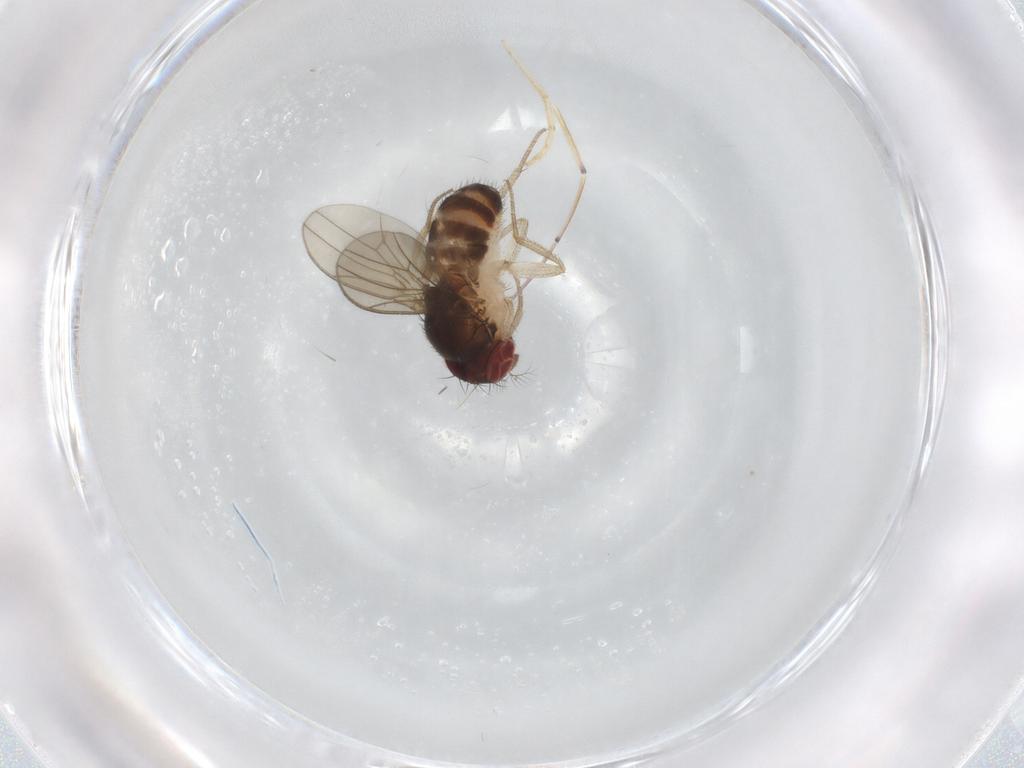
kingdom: Animalia
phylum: Arthropoda
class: Insecta
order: Diptera
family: Drosophilidae
